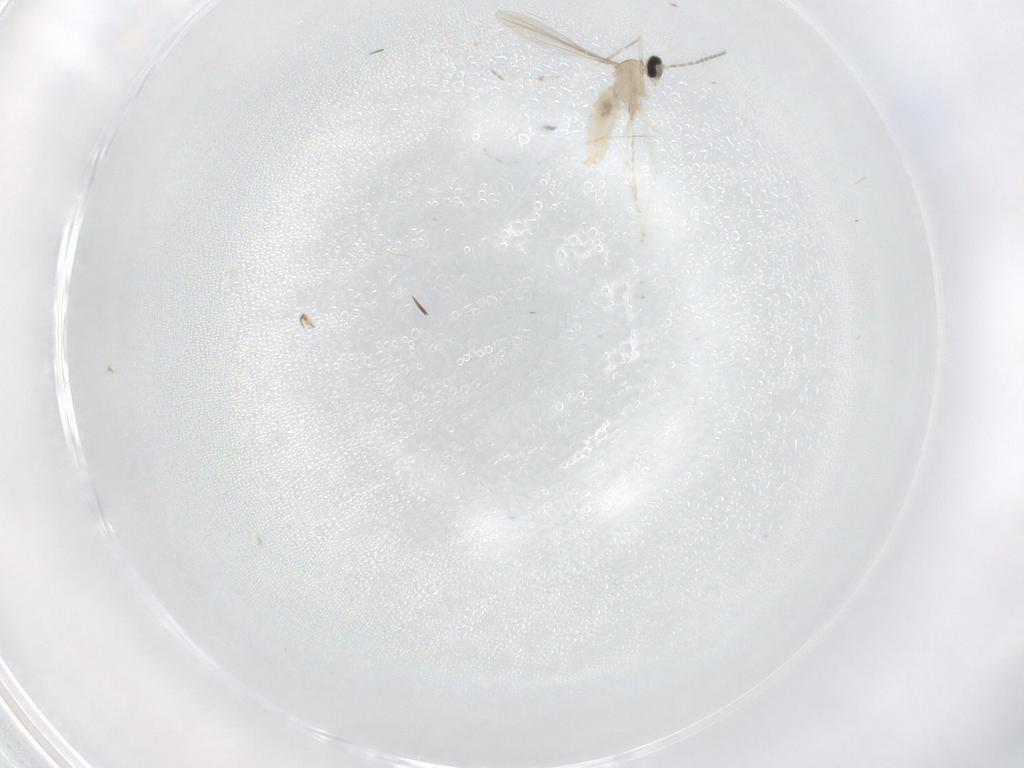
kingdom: Animalia
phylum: Arthropoda
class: Insecta
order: Diptera
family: Cecidomyiidae
